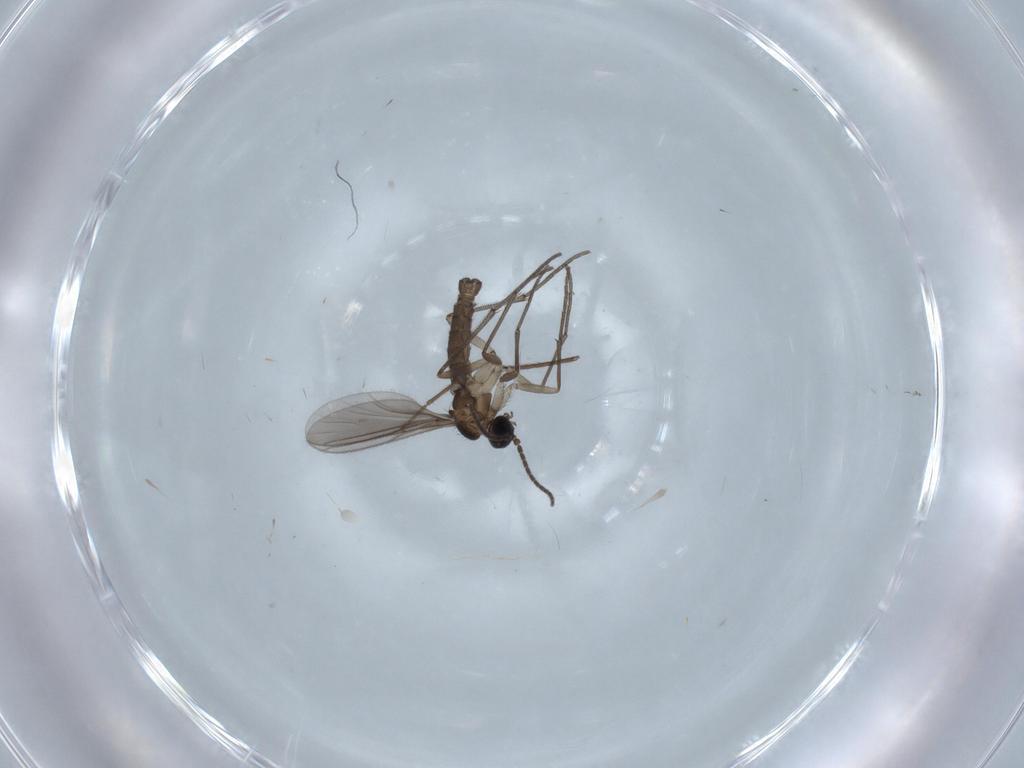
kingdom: Animalia
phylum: Arthropoda
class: Insecta
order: Diptera
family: Sciaridae
